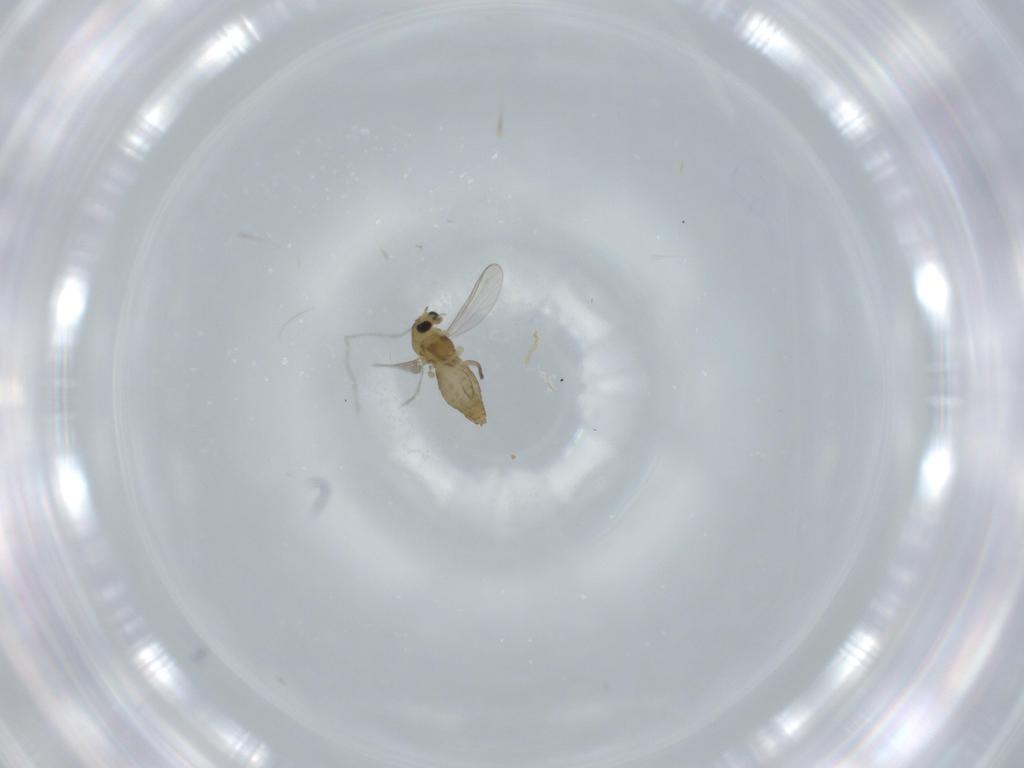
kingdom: Animalia
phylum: Arthropoda
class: Insecta
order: Diptera
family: Chironomidae
